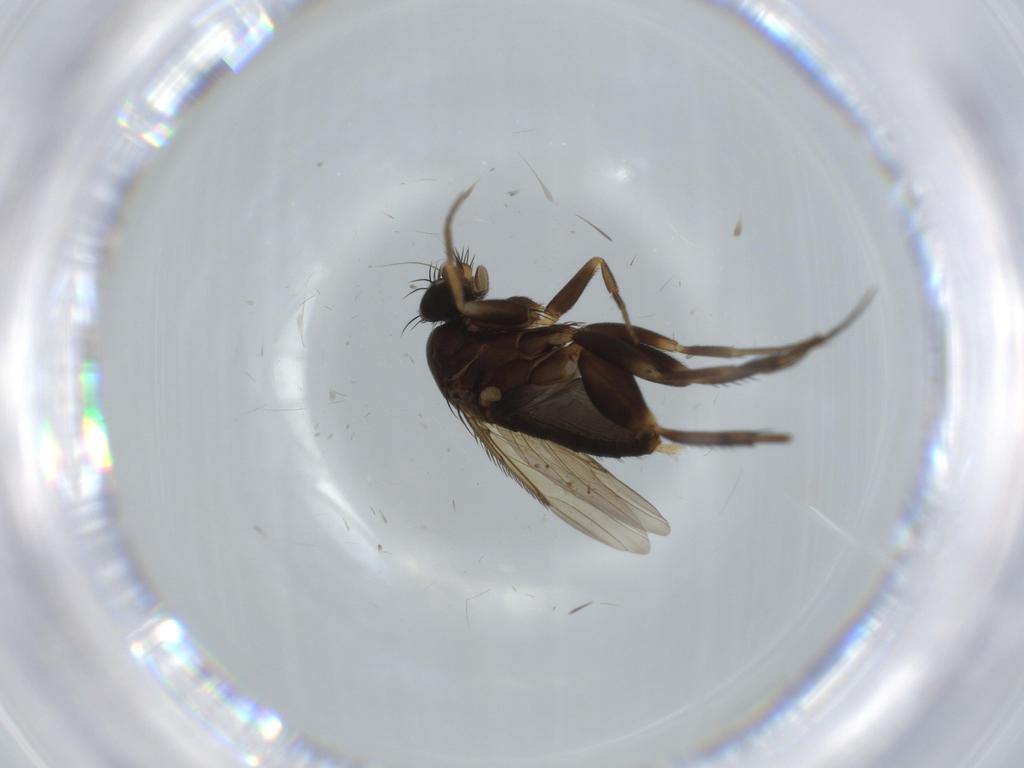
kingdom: Animalia
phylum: Arthropoda
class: Insecta
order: Diptera
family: Phoridae
